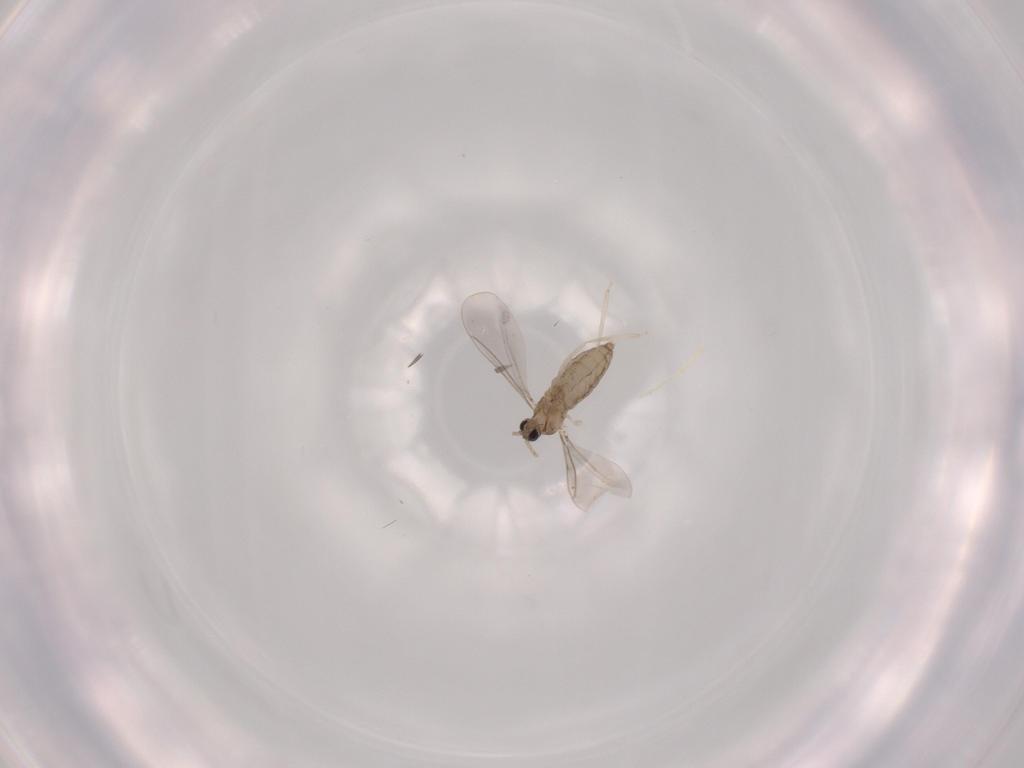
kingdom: Animalia
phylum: Arthropoda
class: Insecta
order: Diptera
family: Cecidomyiidae
